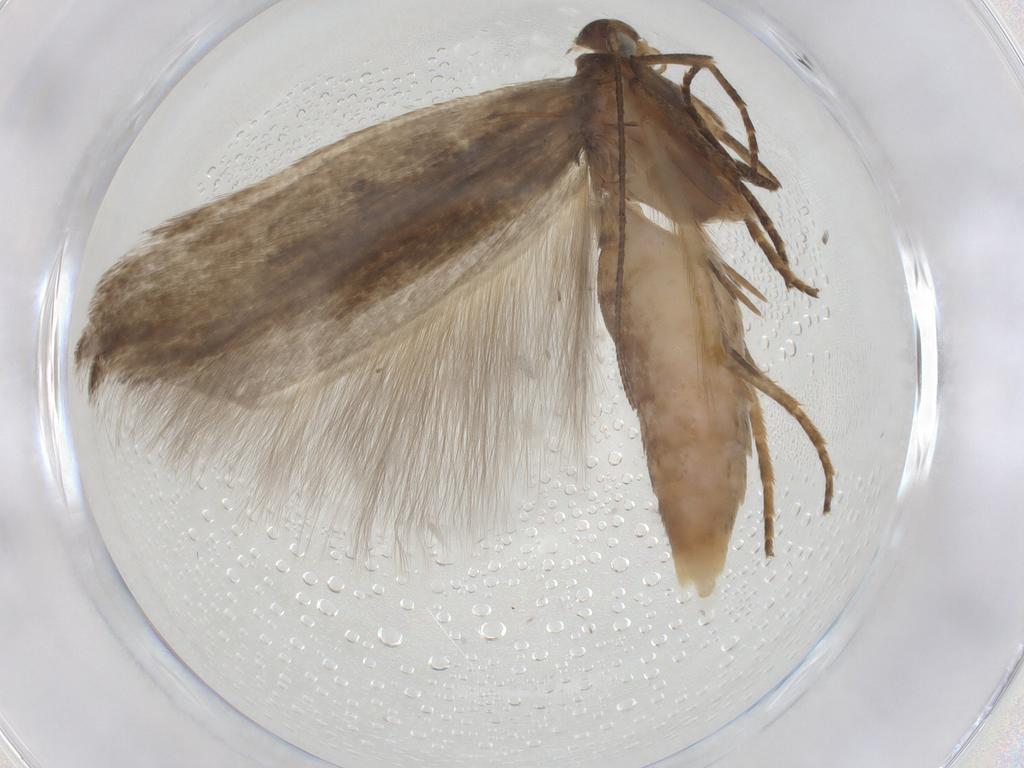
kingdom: Animalia
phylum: Arthropoda
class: Insecta
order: Lepidoptera
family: Gelechiidae
